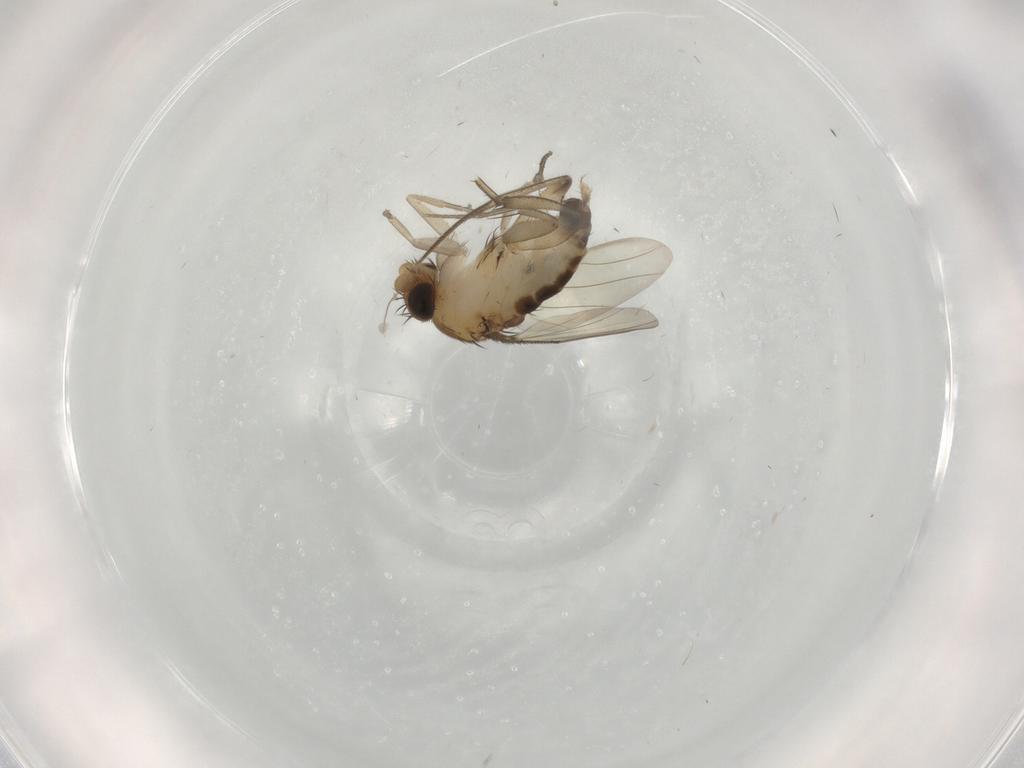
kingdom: Animalia
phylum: Arthropoda
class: Insecta
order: Diptera
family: Phoridae
